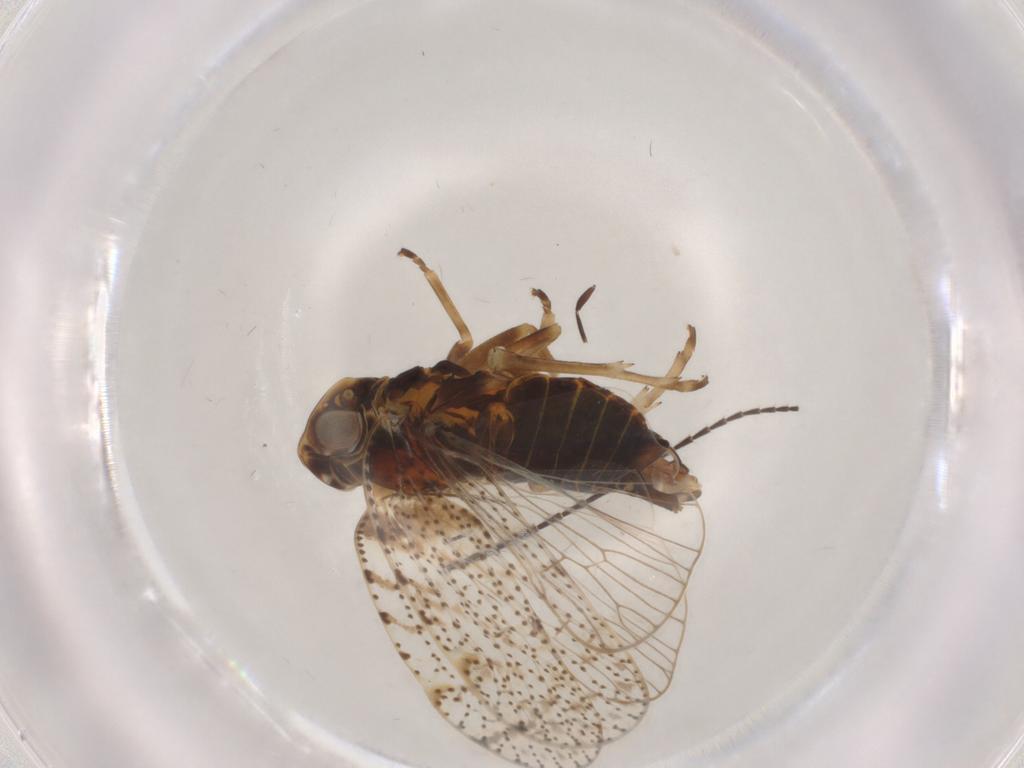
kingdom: Animalia
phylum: Arthropoda
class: Insecta
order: Hemiptera
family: Cixiidae
